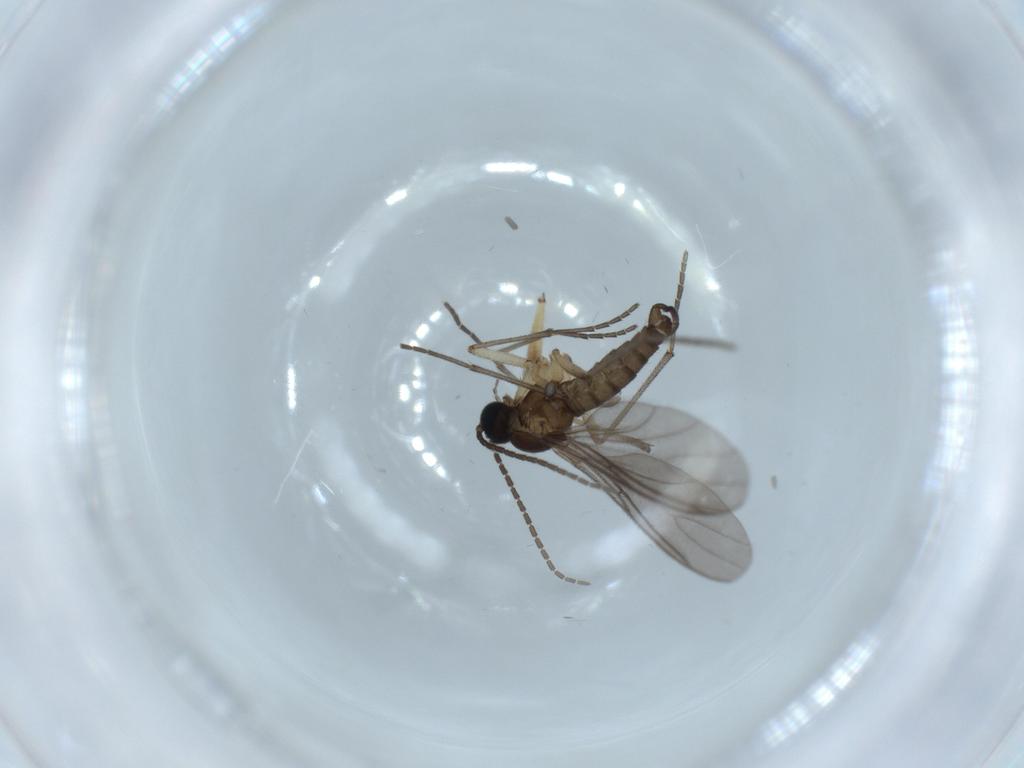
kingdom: Animalia
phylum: Arthropoda
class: Insecta
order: Diptera
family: Sciaridae
